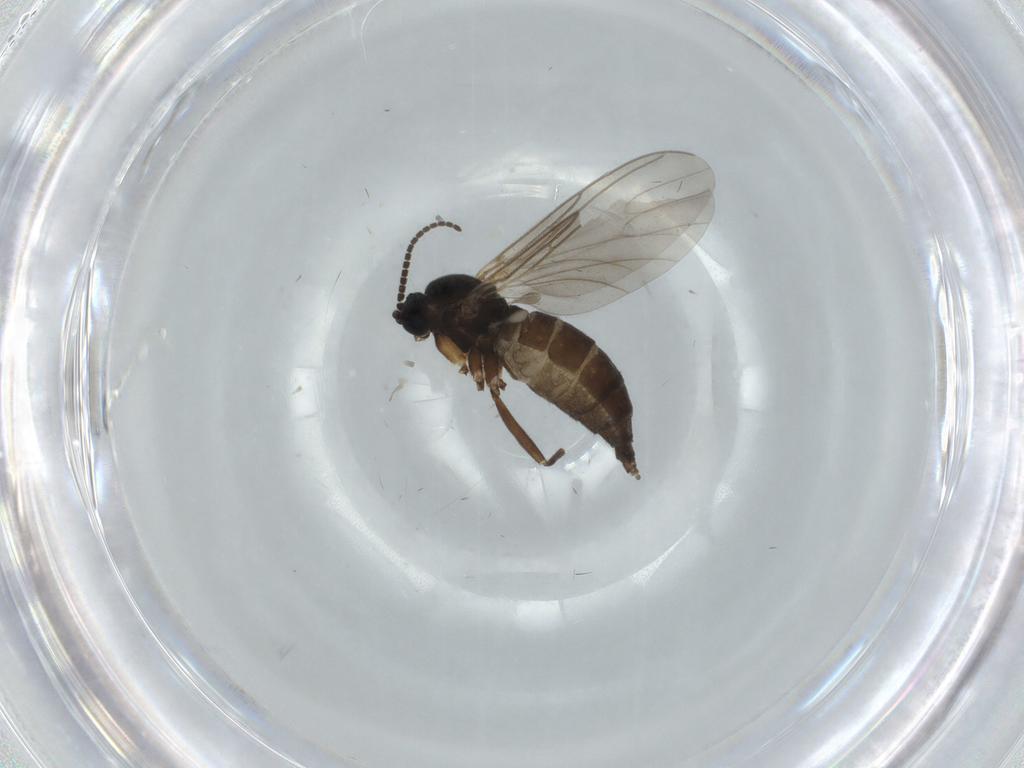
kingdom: Animalia
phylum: Arthropoda
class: Insecta
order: Diptera
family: Sciaridae
